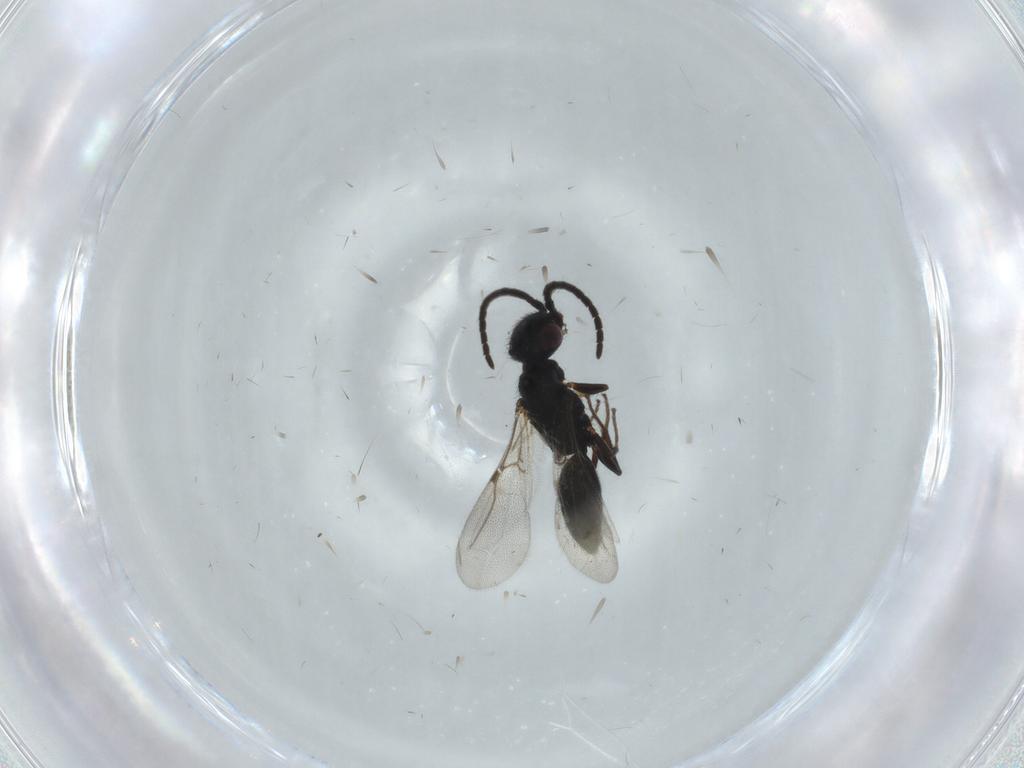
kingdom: Animalia
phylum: Arthropoda
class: Insecta
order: Hymenoptera
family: Bethylidae
